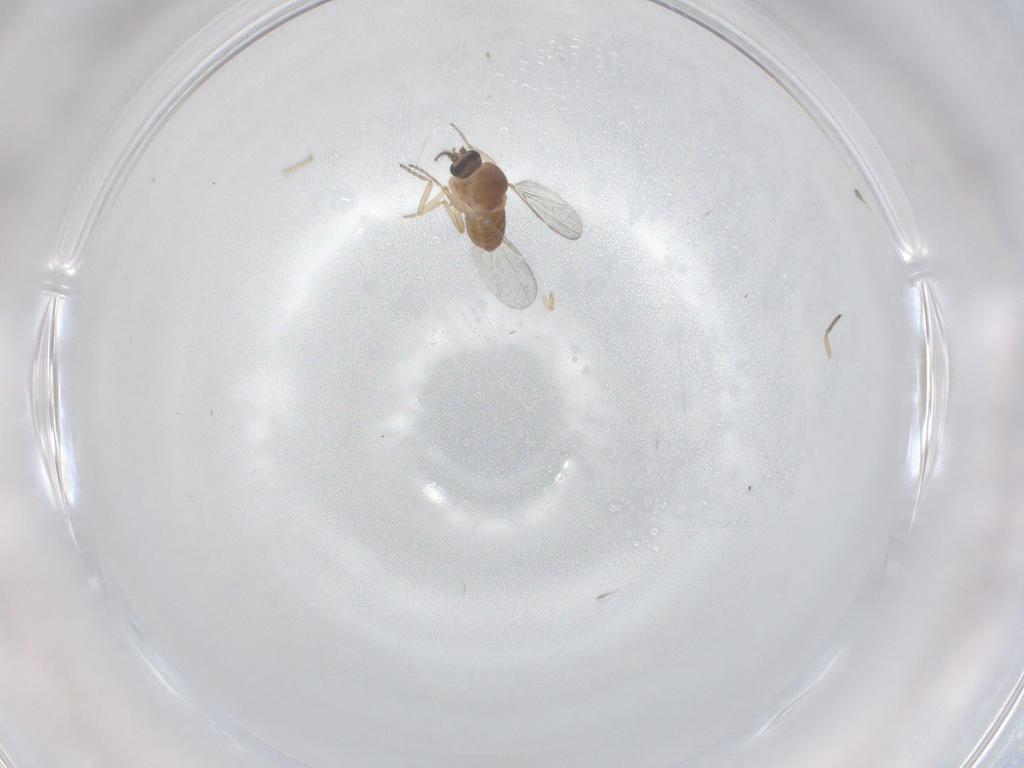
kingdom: Animalia
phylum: Arthropoda
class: Insecta
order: Diptera
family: Ceratopogonidae
